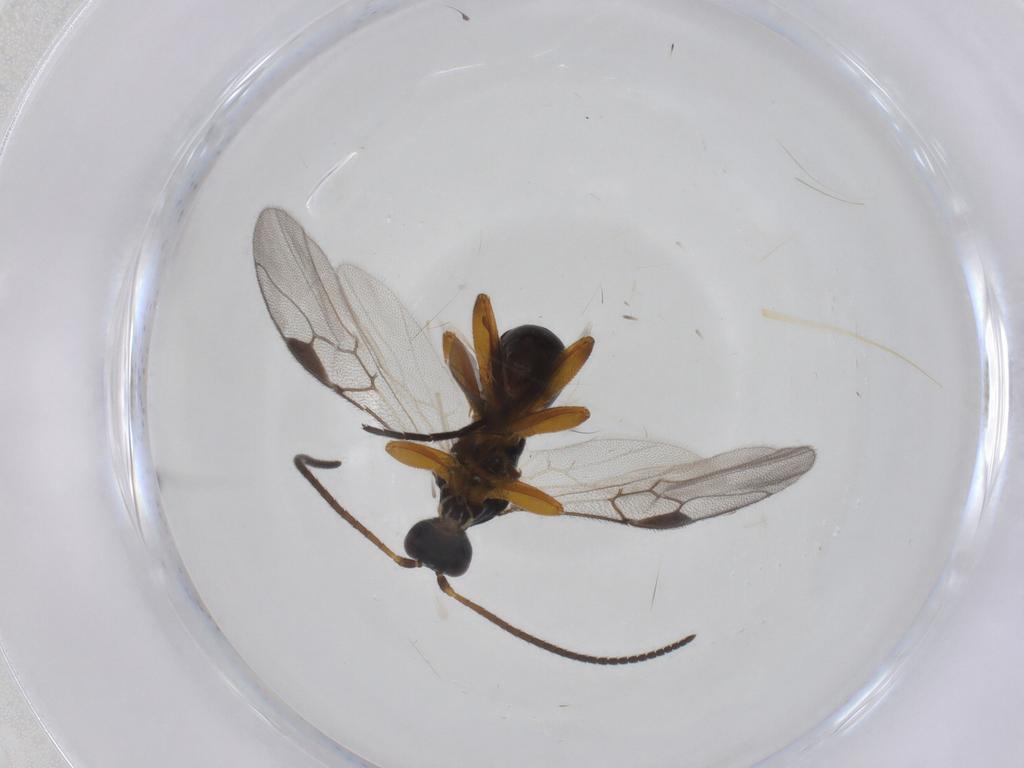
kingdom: Animalia
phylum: Arthropoda
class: Insecta
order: Hymenoptera
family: Braconidae
